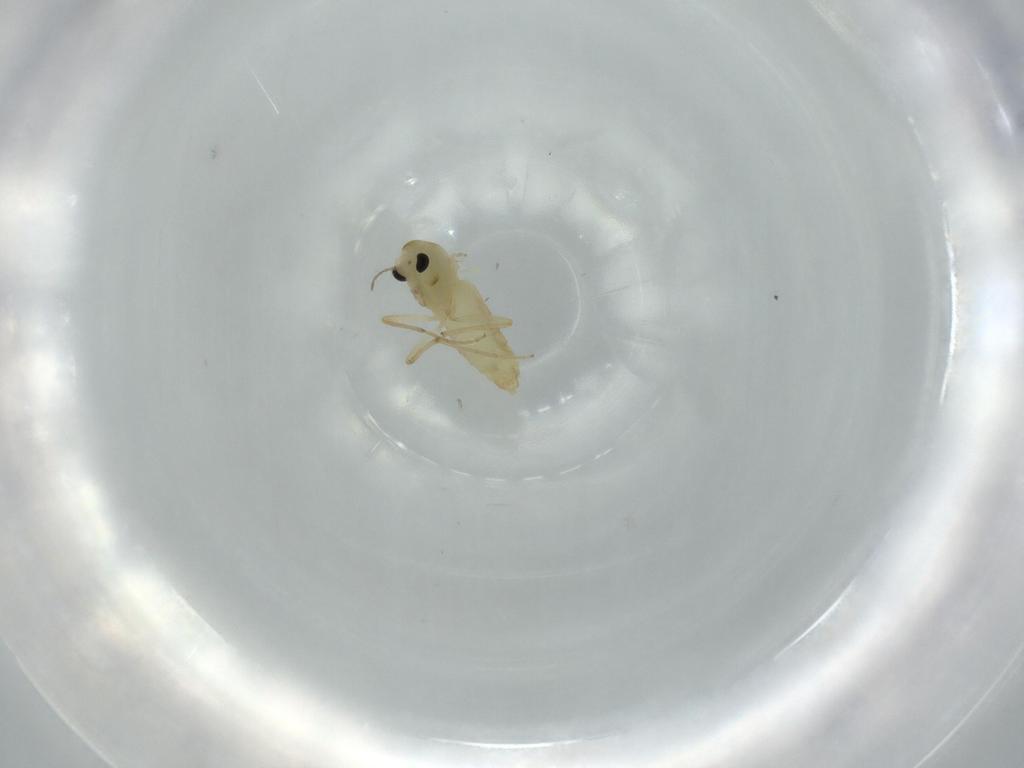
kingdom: Animalia
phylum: Arthropoda
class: Insecta
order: Diptera
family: Chironomidae
